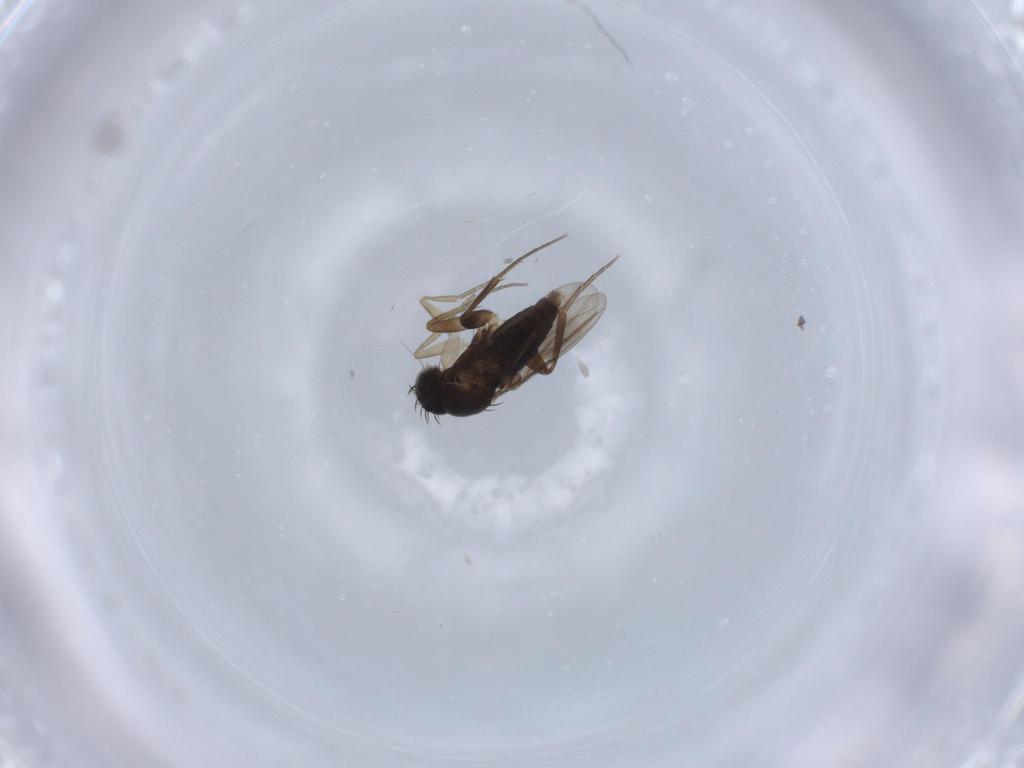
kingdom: Animalia
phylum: Arthropoda
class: Insecta
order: Diptera
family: Phoridae
